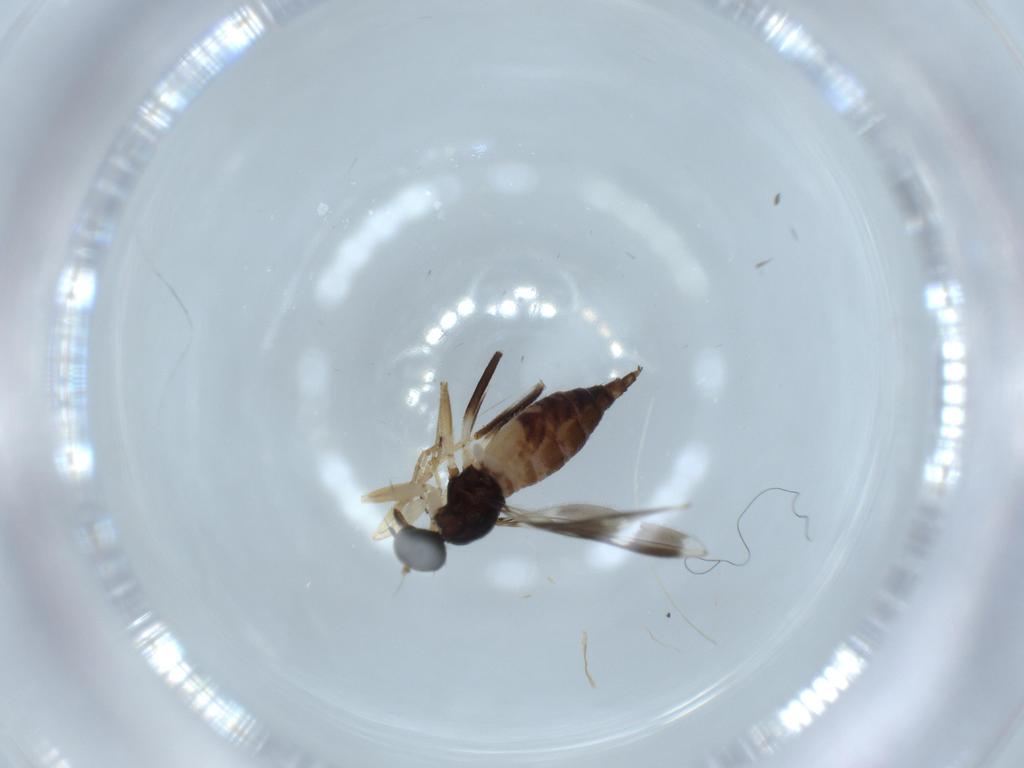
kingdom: Animalia
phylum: Arthropoda
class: Insecta
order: Diptera
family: Hybotidae
